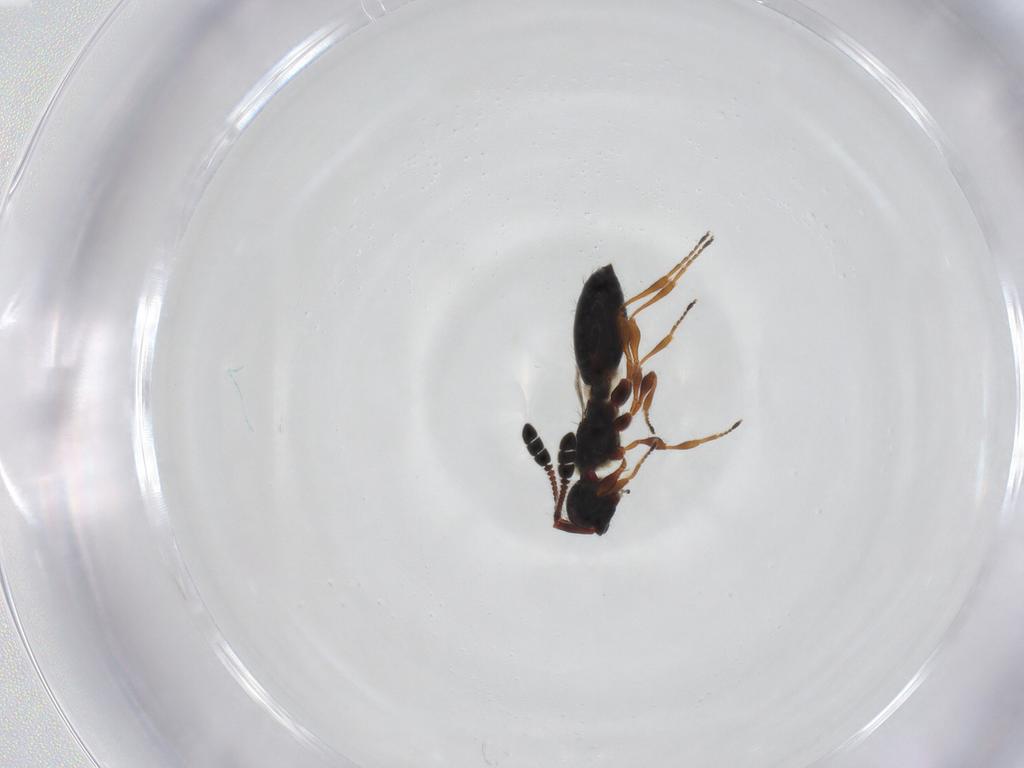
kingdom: Animalia
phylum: Arthropoda
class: Insecta
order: Hymenoptera
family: Diapriidae
